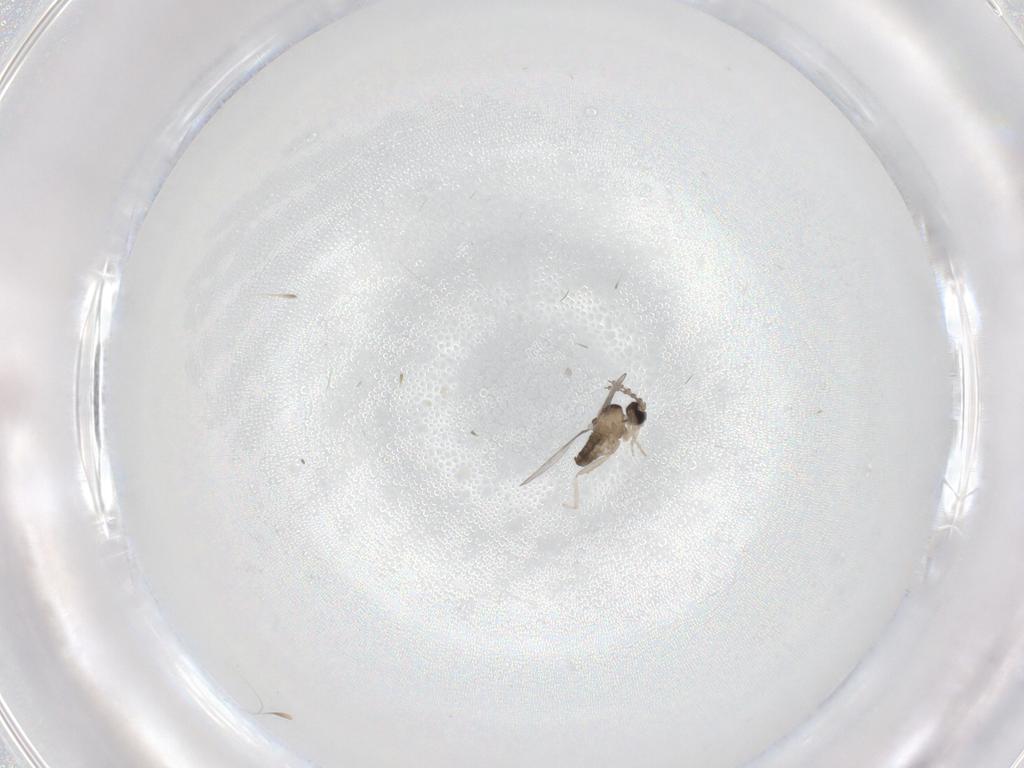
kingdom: Animalia
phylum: Arthropoda
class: Insecta
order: Diptera
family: Cecidomyiidae
